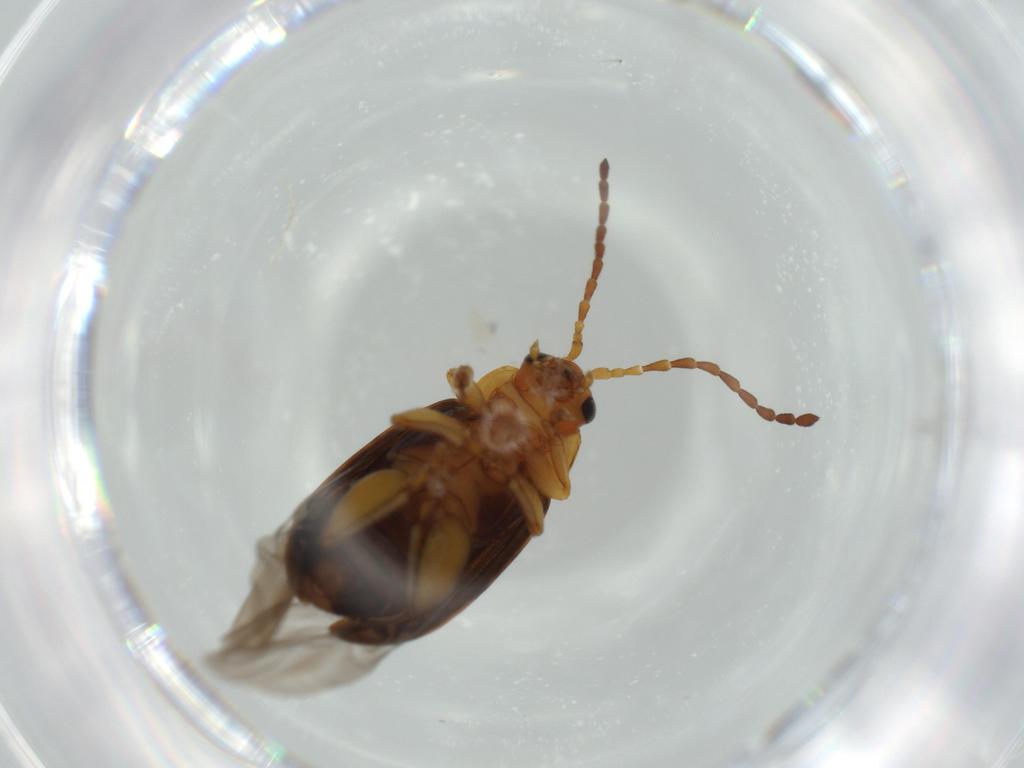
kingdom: Animalia
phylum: Arthropoda
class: Insecta
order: Coleoptera
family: Chrysomelidae
